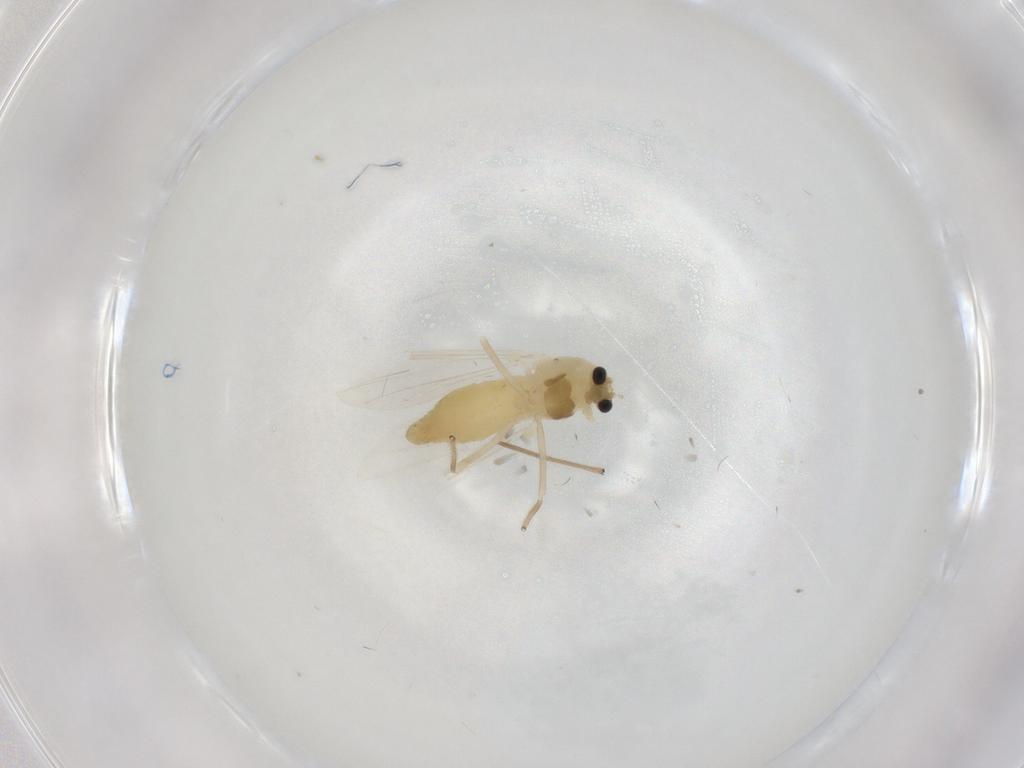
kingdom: Animalia
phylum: Arthropoda
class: Insecta
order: Diptera
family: Chironomidae
